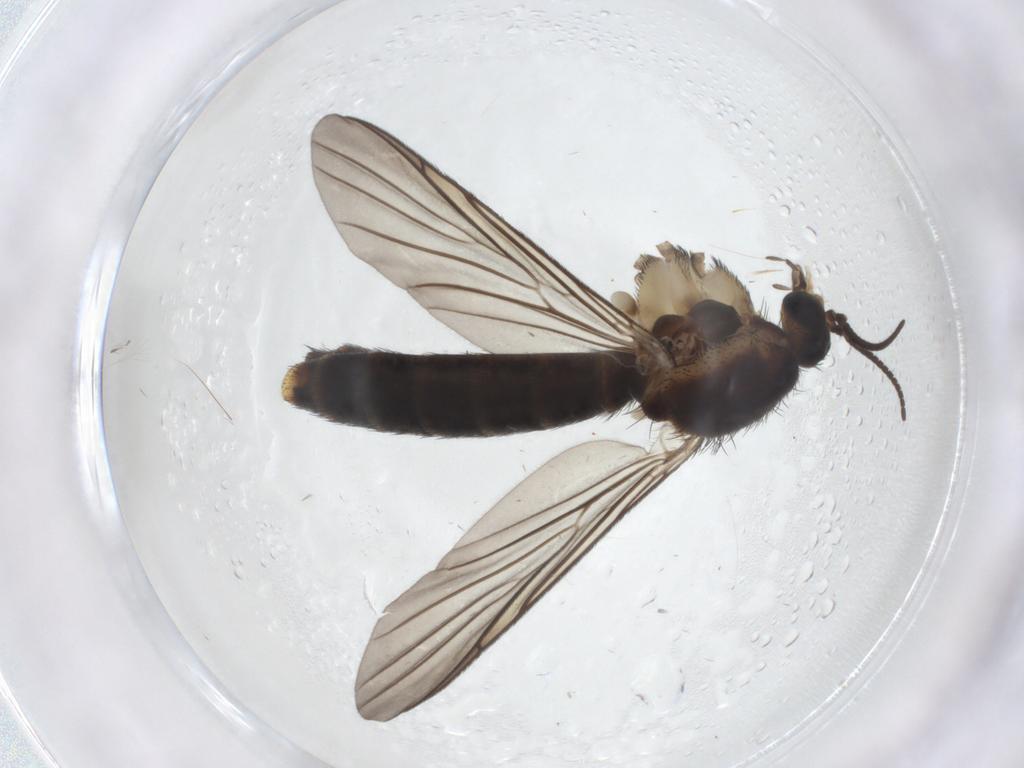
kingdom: Animalia
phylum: Arthropoda
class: Insecta
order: Diptera
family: Keroplatidae
